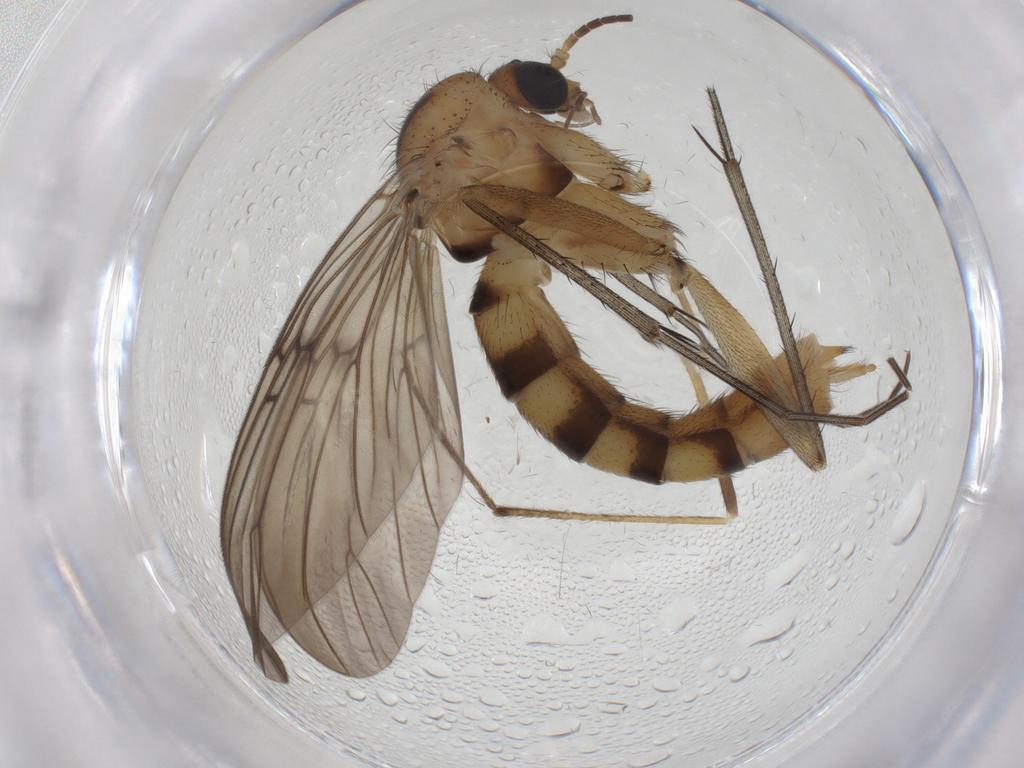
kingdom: Animalia
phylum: Arthropoda
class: Insecta
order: Diptera
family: Mycetophilidae
